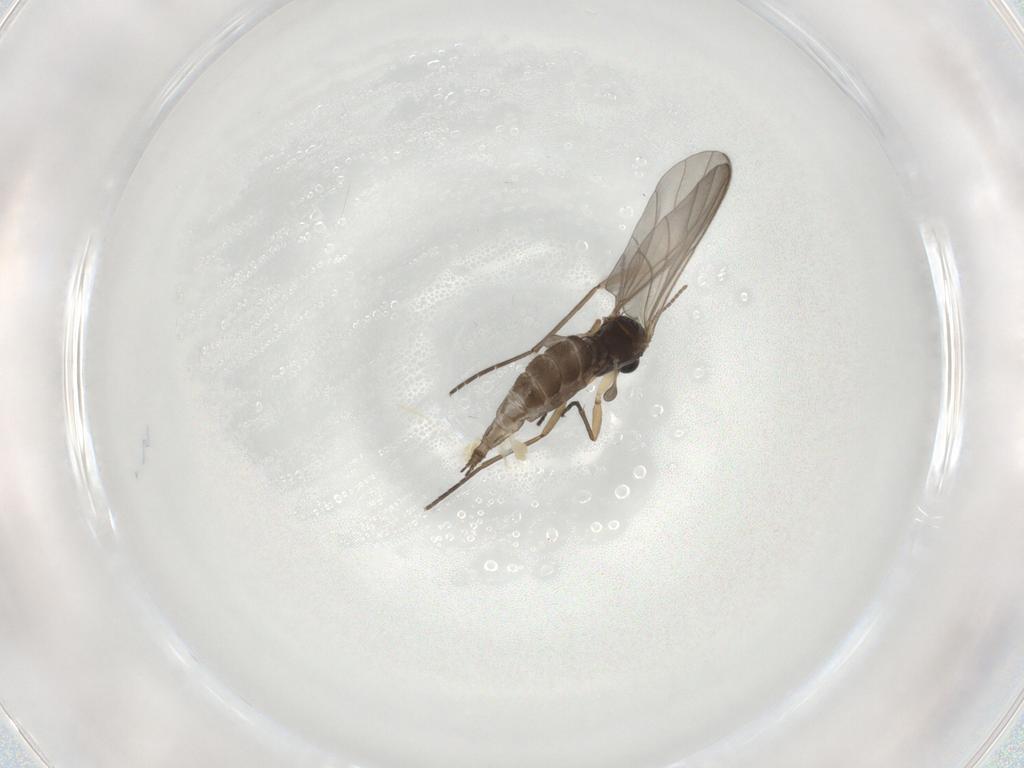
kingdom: Animalia
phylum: Arthropoda
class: Insecta
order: Diptera
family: Sciaridae
